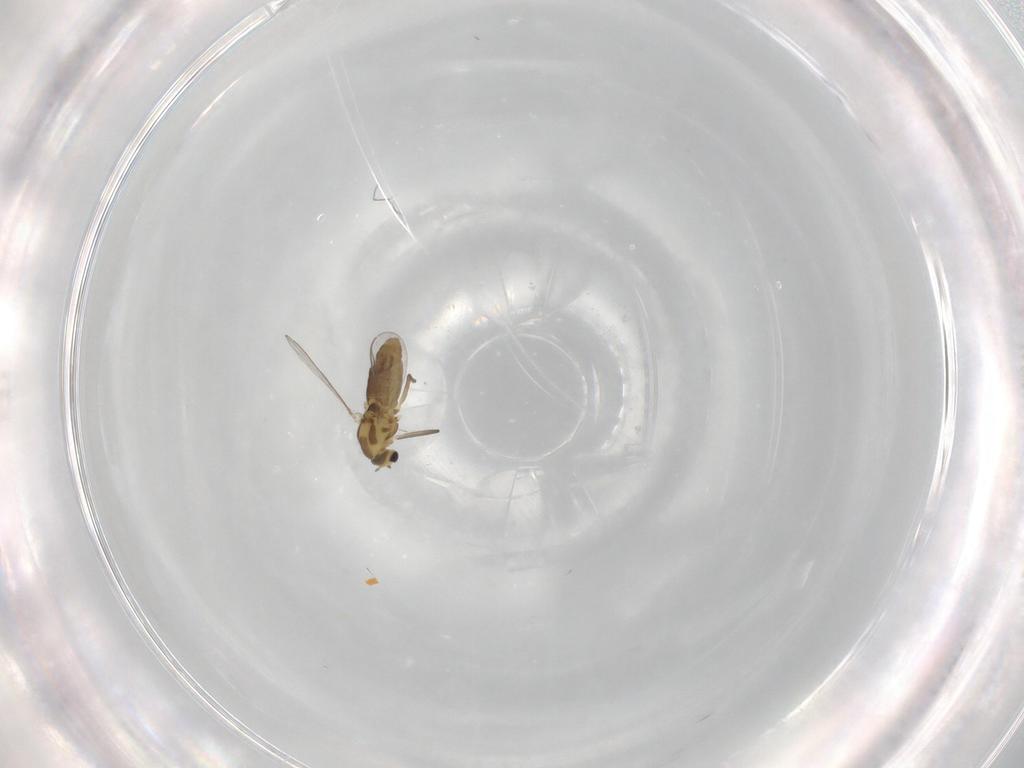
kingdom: Animalia
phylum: Arthropoda
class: Insecta
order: Diptera
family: Chironomidae
